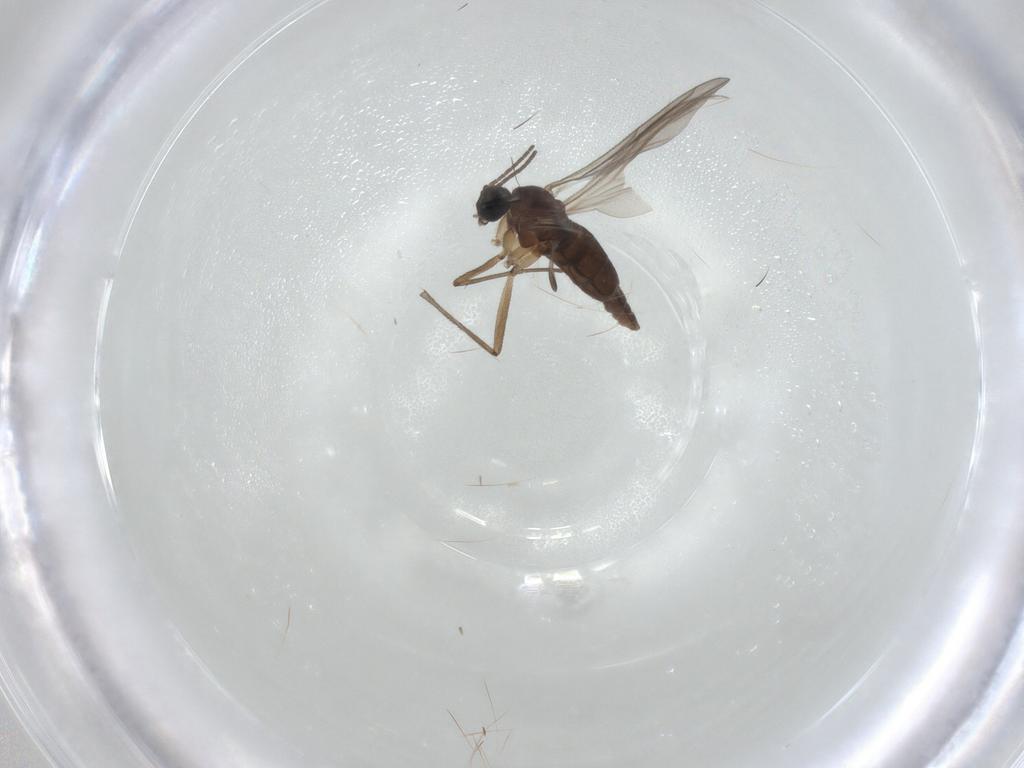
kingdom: Animalia
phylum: Arthropoda
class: Insecta
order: Diptera
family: Sciaridae
